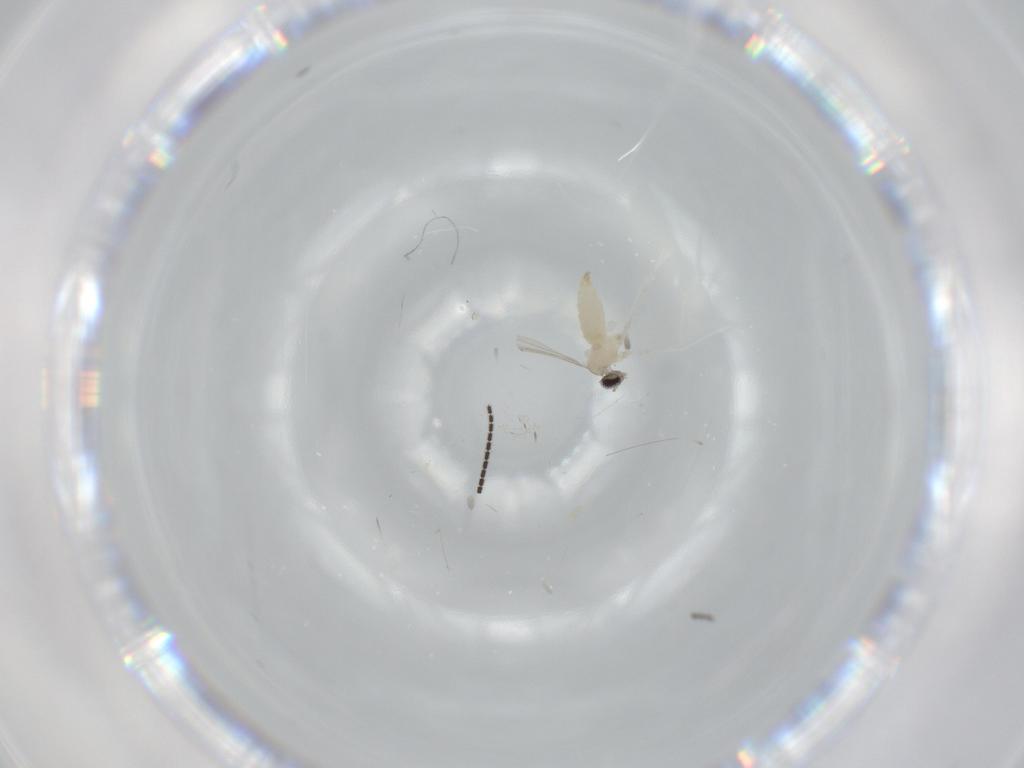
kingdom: Animalia
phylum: Arthropoda
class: Insecta
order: Diptera
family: Cecidomyiidae
